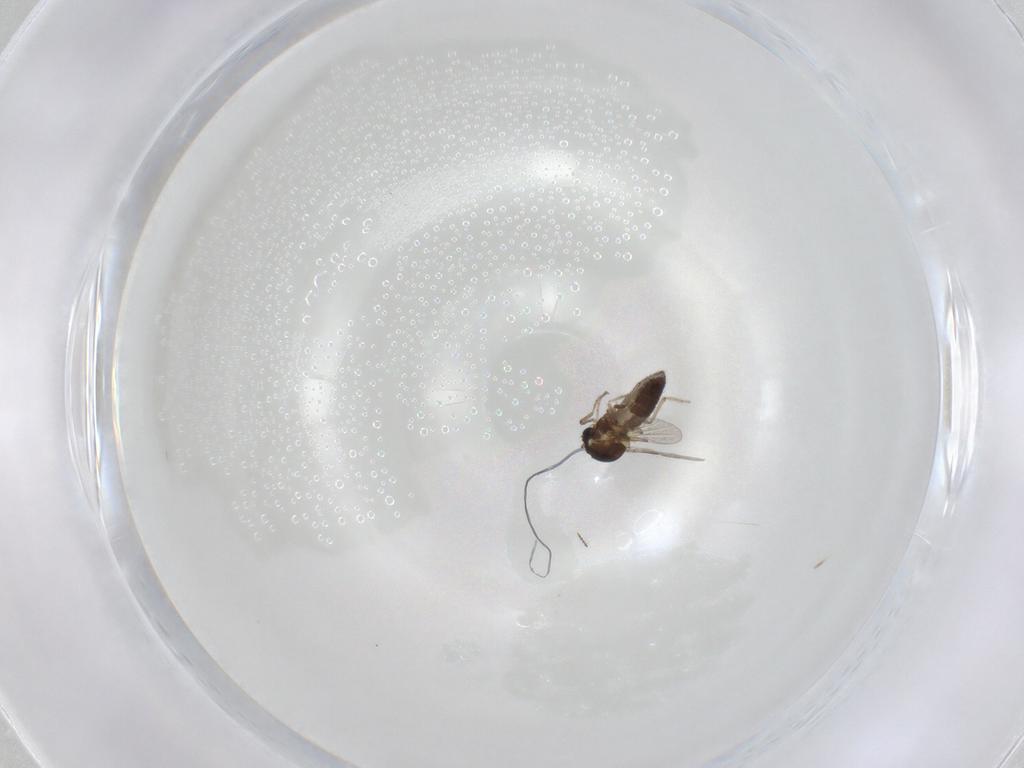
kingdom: Animalia
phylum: Arthropoda
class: Insecta
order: Diptera
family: Ceratopogonidae
